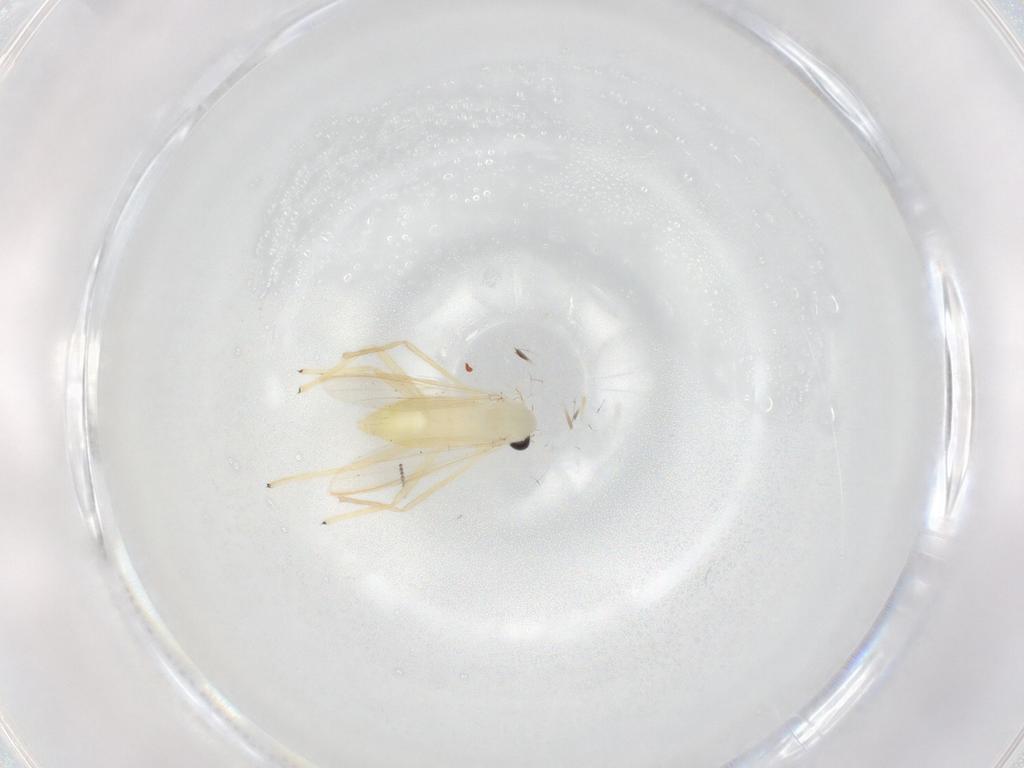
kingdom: Animalia
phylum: Arthropoda
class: Insecta
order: Diptera
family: Chironomidae
